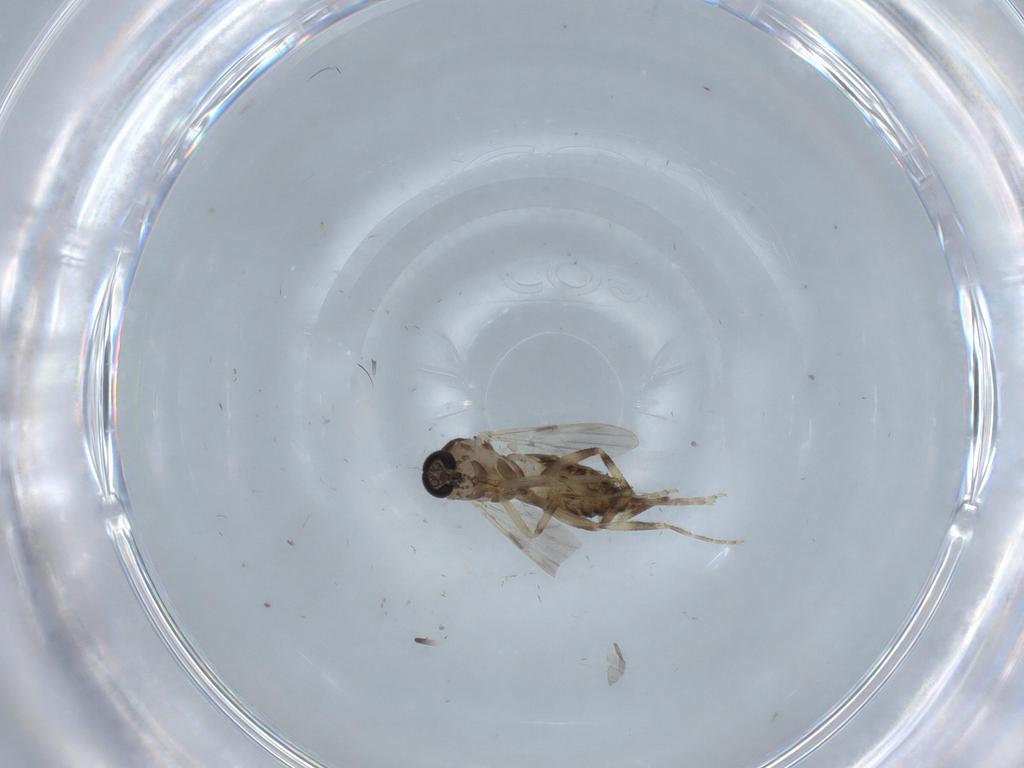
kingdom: Animalia
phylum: Arthropoda
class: Insecta
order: Diptera
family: Ceratopogonidae
